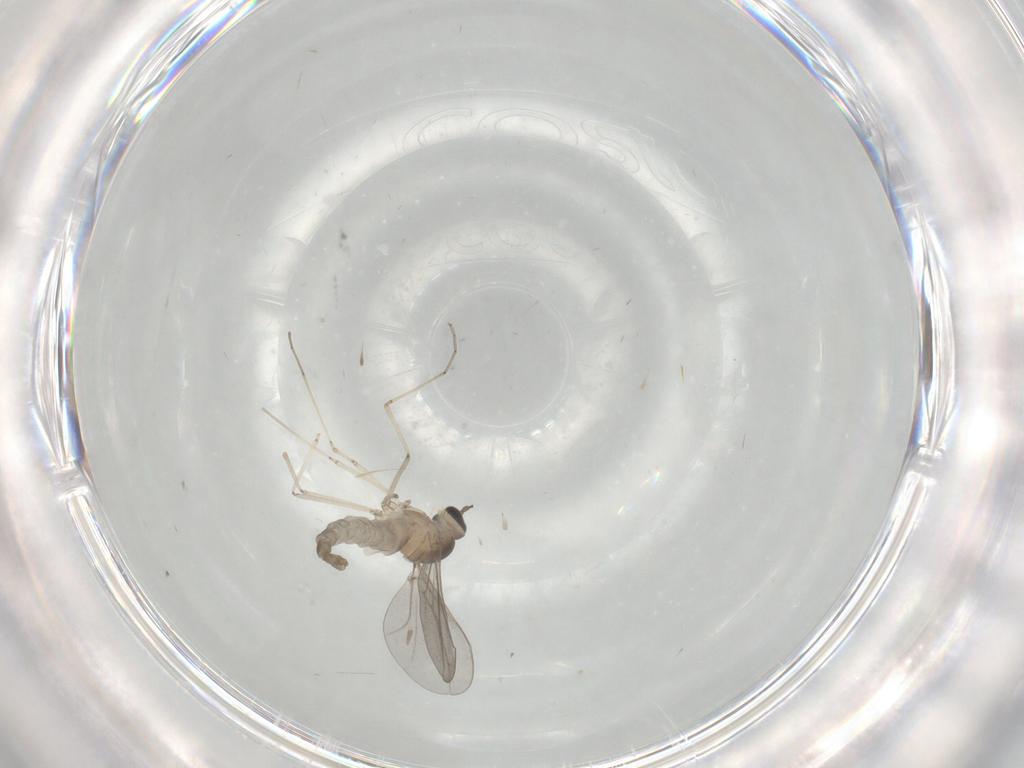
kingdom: Animalia
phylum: Arthropoda
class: Insecta
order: Diptera
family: Cecidomyiidae
